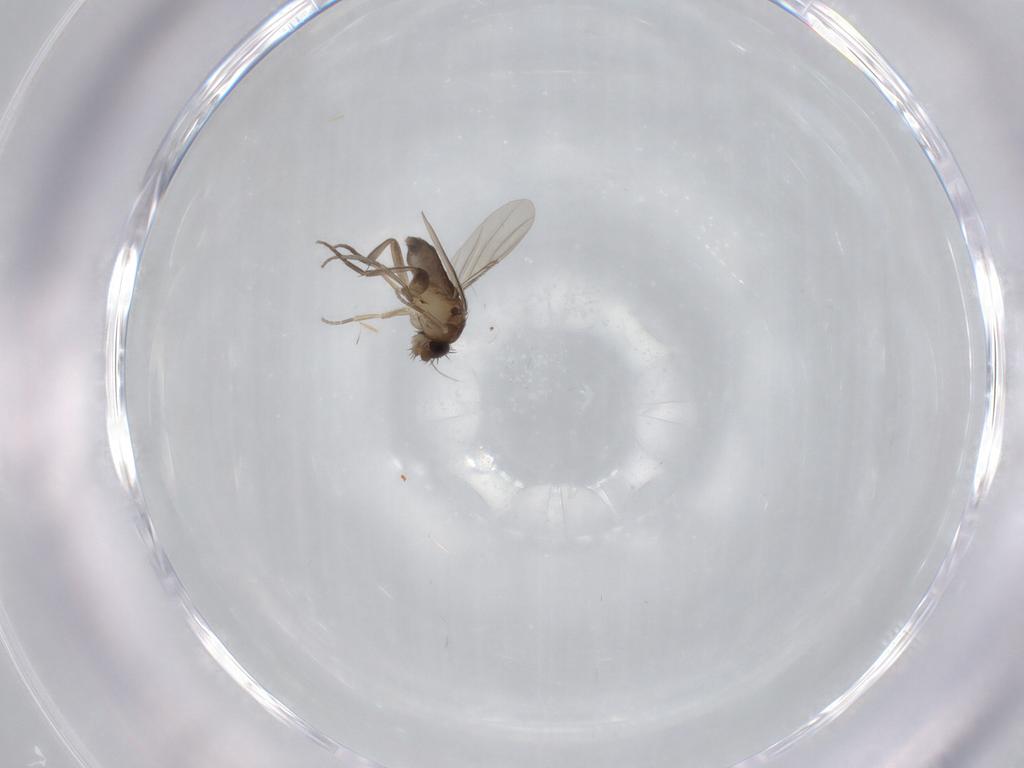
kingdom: Animalia
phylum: Arthropoda
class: Insecta
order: Diptera
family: Phoridae
